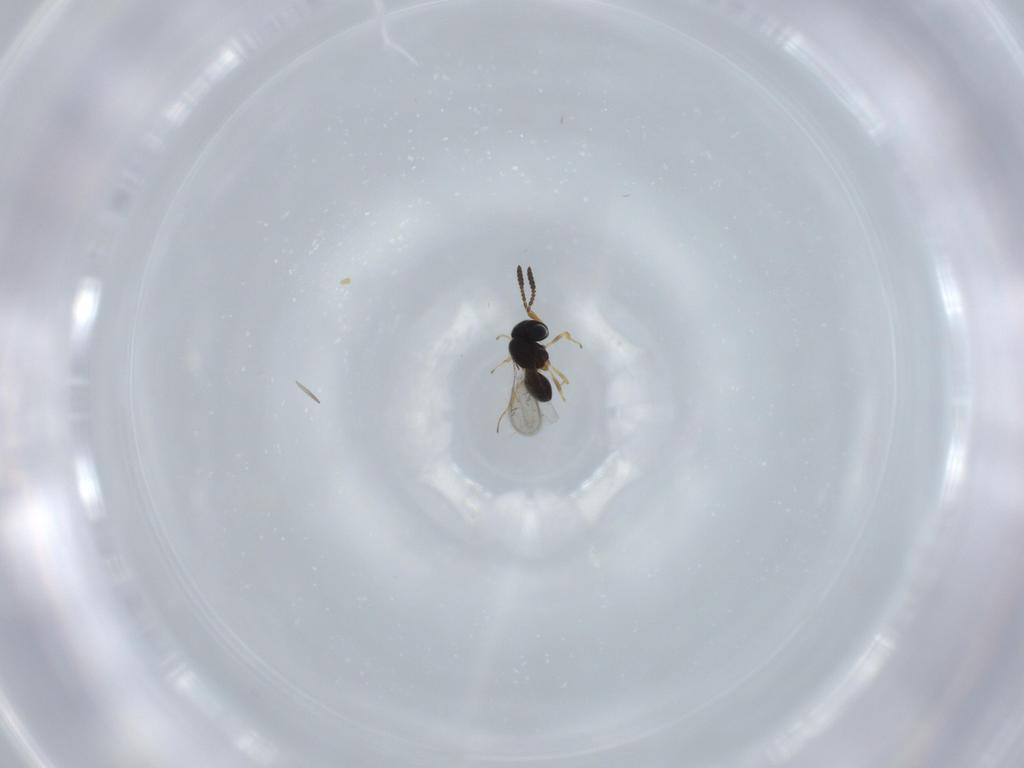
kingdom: Animalia
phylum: Arthropoda
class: Insecta
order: Hymenoptera
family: Scelionidae
